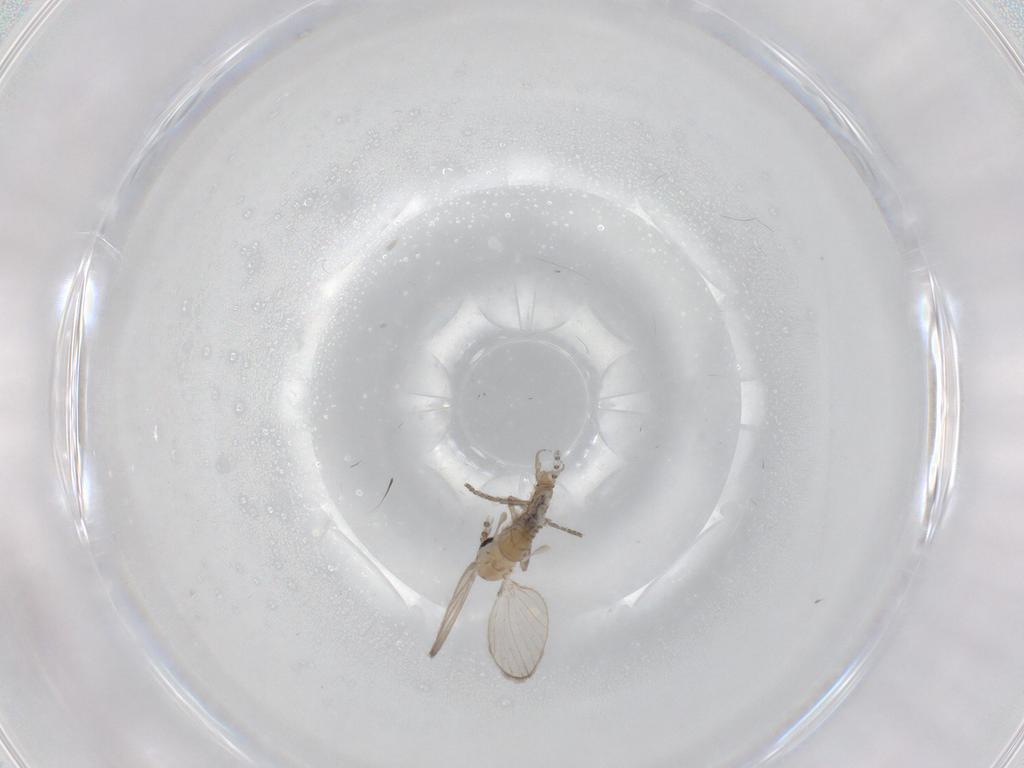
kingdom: Animalia
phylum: Arthropoda
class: Insecta
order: Diptera
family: Psychodidae
